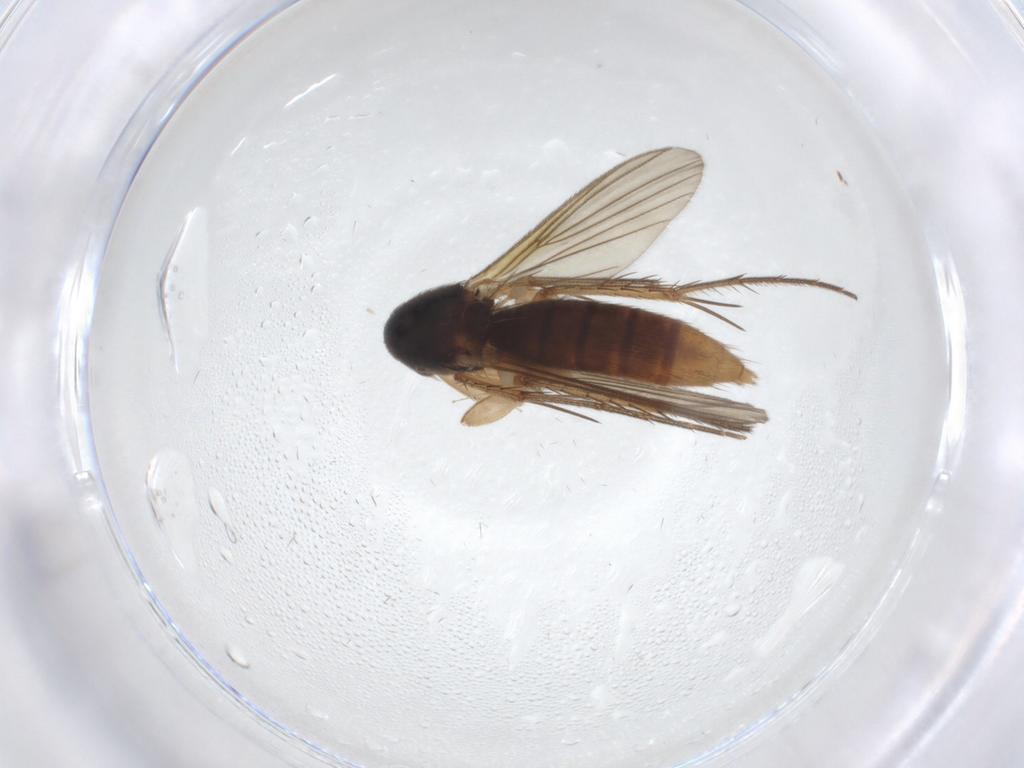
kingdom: Animalia
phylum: Arthropoda
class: Insecta
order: Diptera
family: Mycetophilidae
